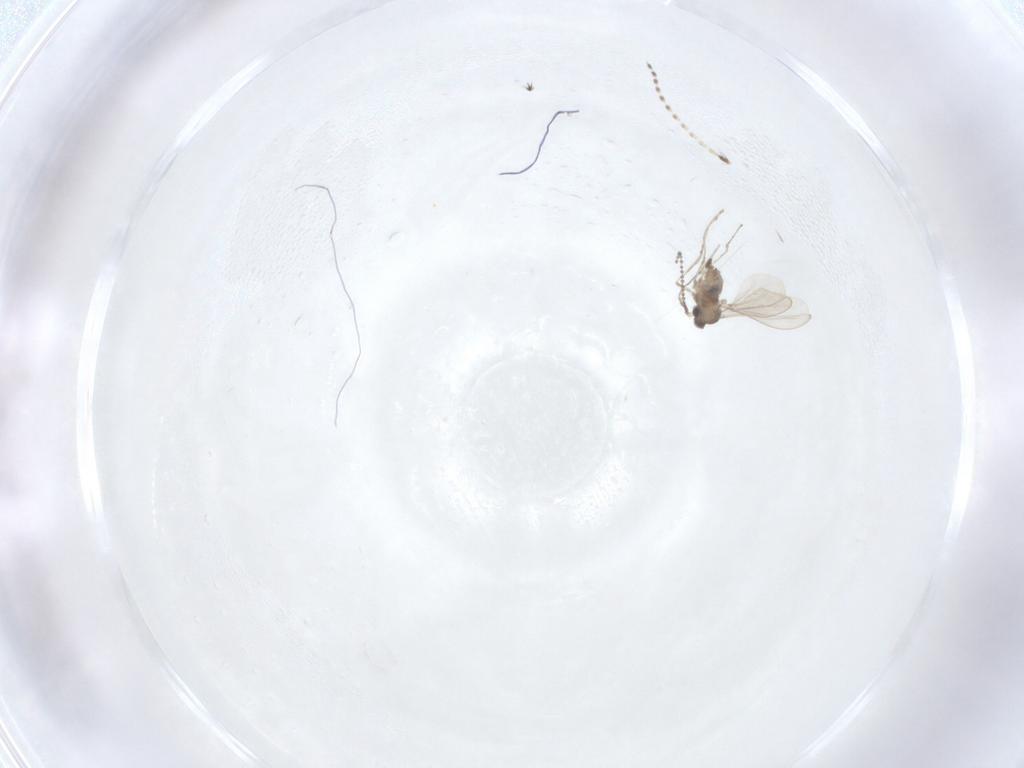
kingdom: Animalia
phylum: Arthropoda
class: Insecta
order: Diptera
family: Cecidomyiidae
